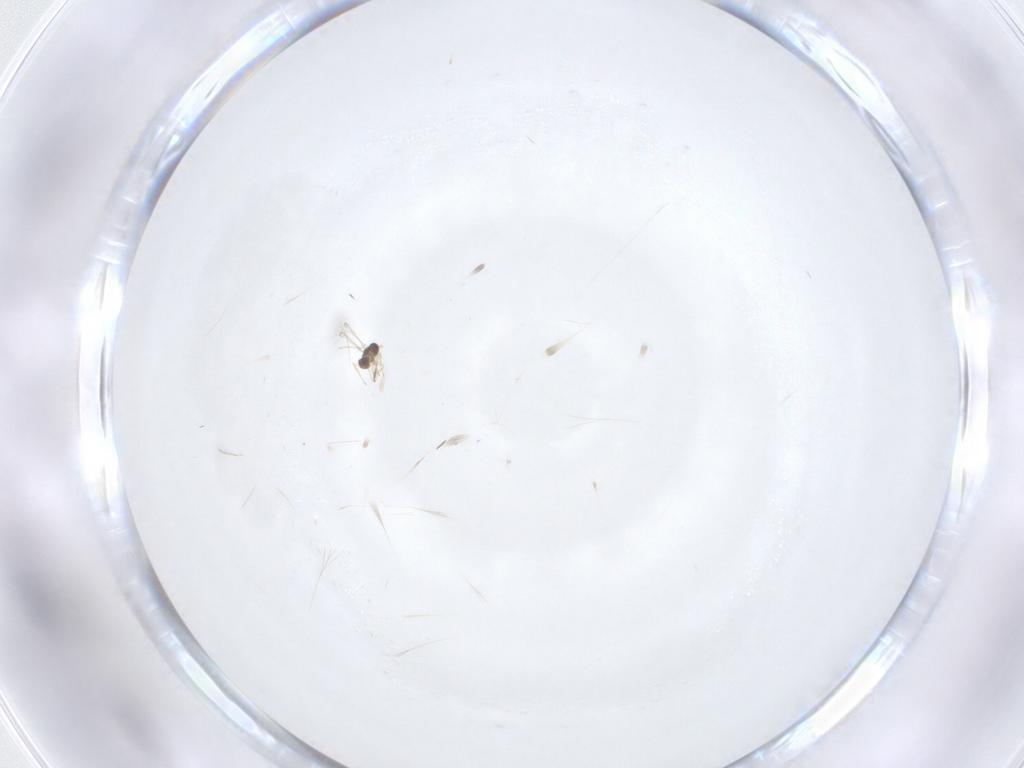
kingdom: Animalia
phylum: Arthropoda
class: Insecta
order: Hymenoptera
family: Mymaridae
